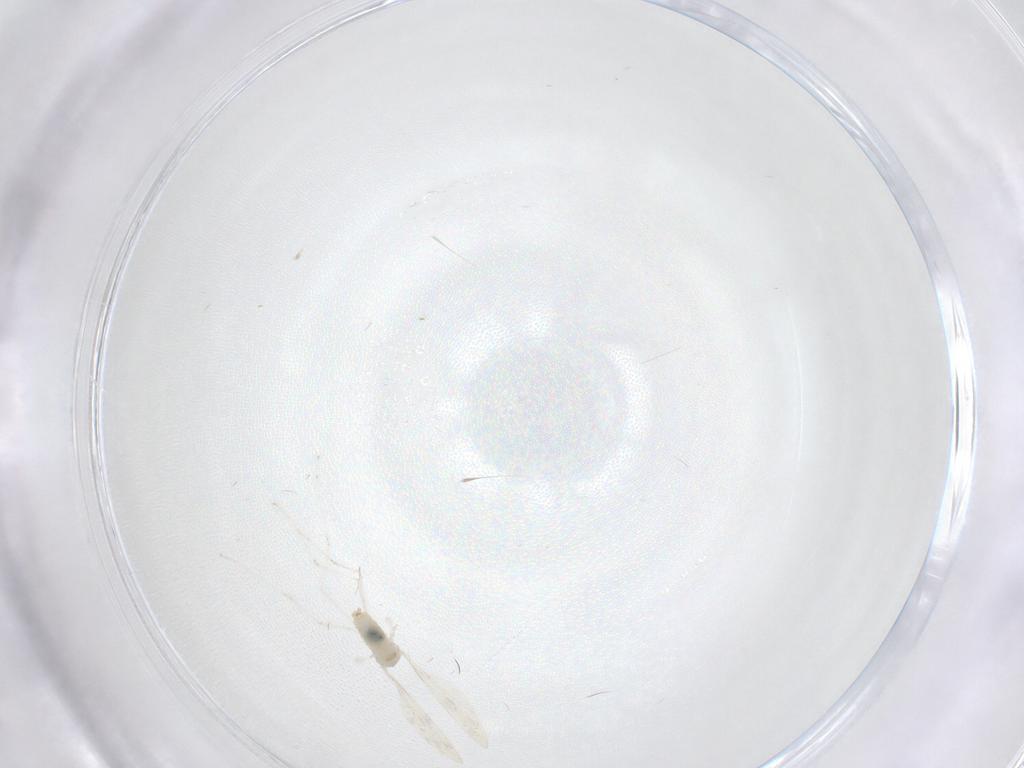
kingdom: Animalia
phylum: Arthropoda
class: Insecta
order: Diptera
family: Cecidomyiidae
